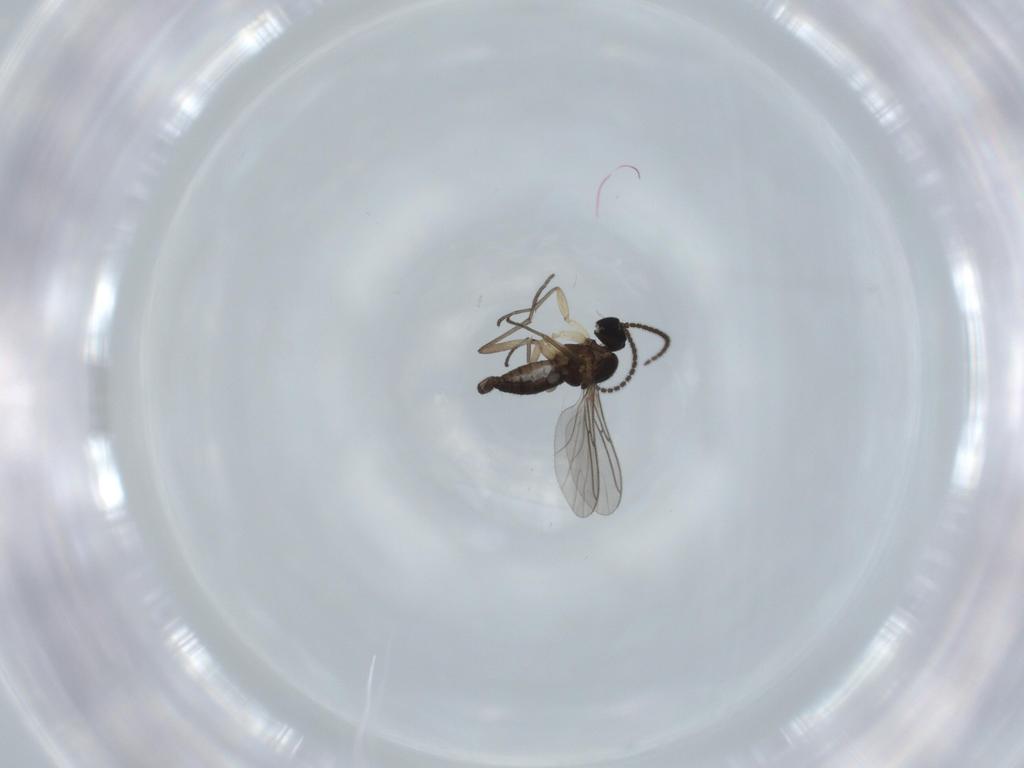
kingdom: Animalia
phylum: Arthropoda
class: Insecta
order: Diptera
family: Sciaridae
